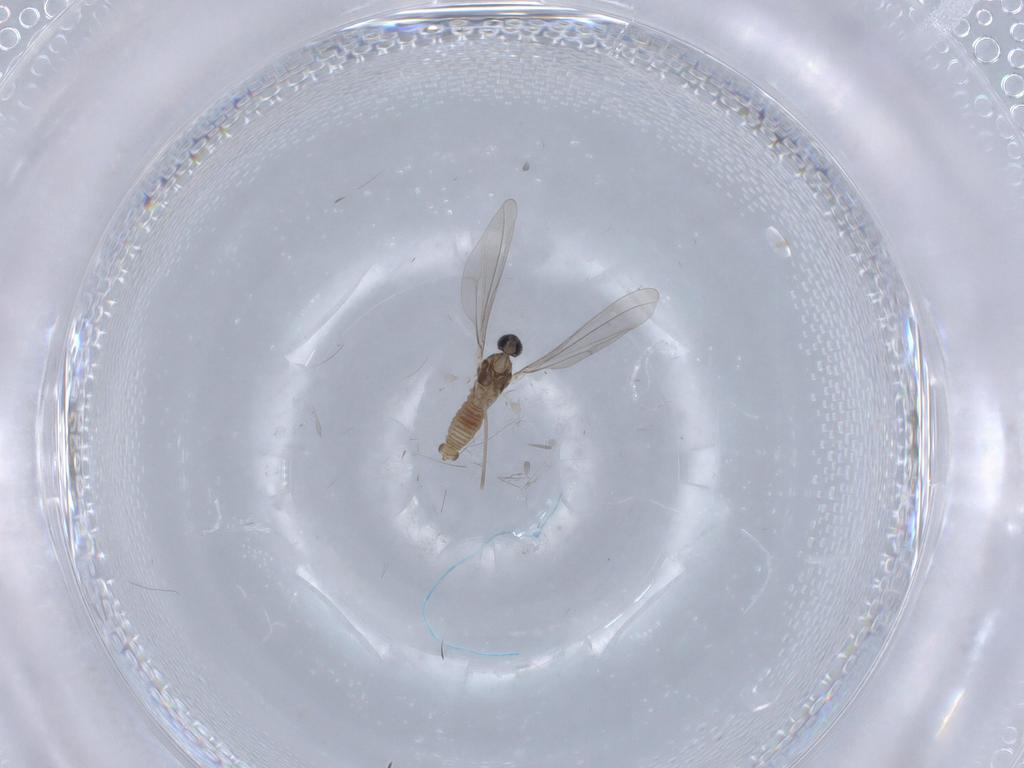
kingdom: Animalia
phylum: Arthropoda
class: Insecta
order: Diptera
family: Cecidomyiidae
